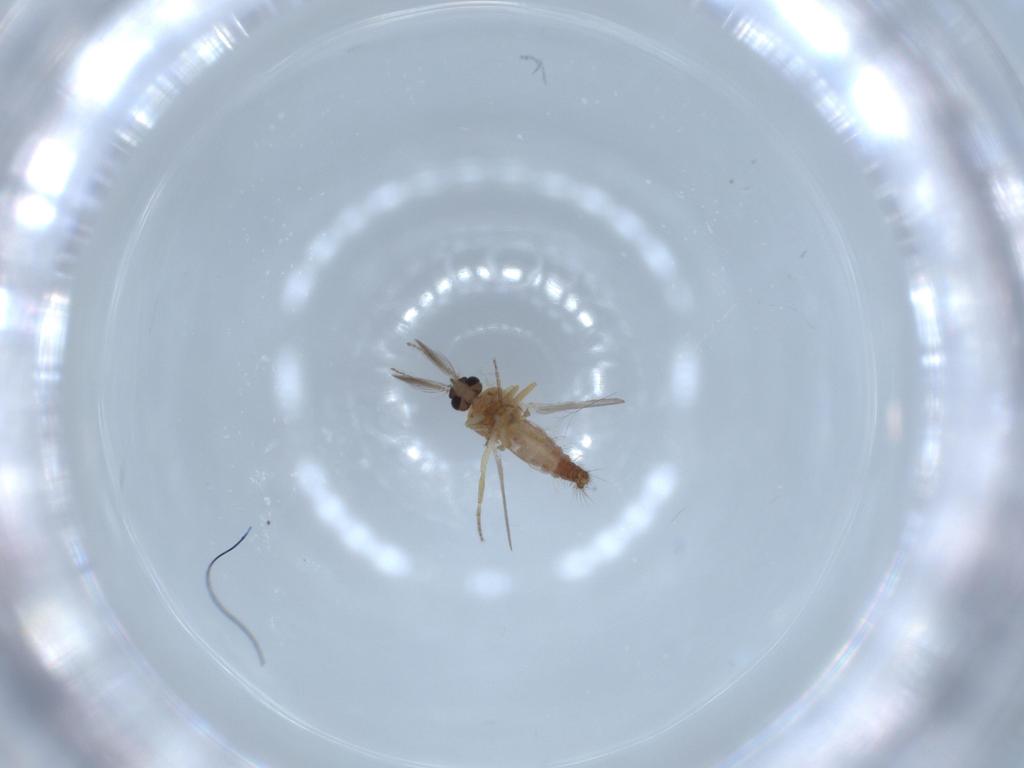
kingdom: Animalia
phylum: Arthropoda
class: Insecta
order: Diptera
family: Ceratopogonidae
